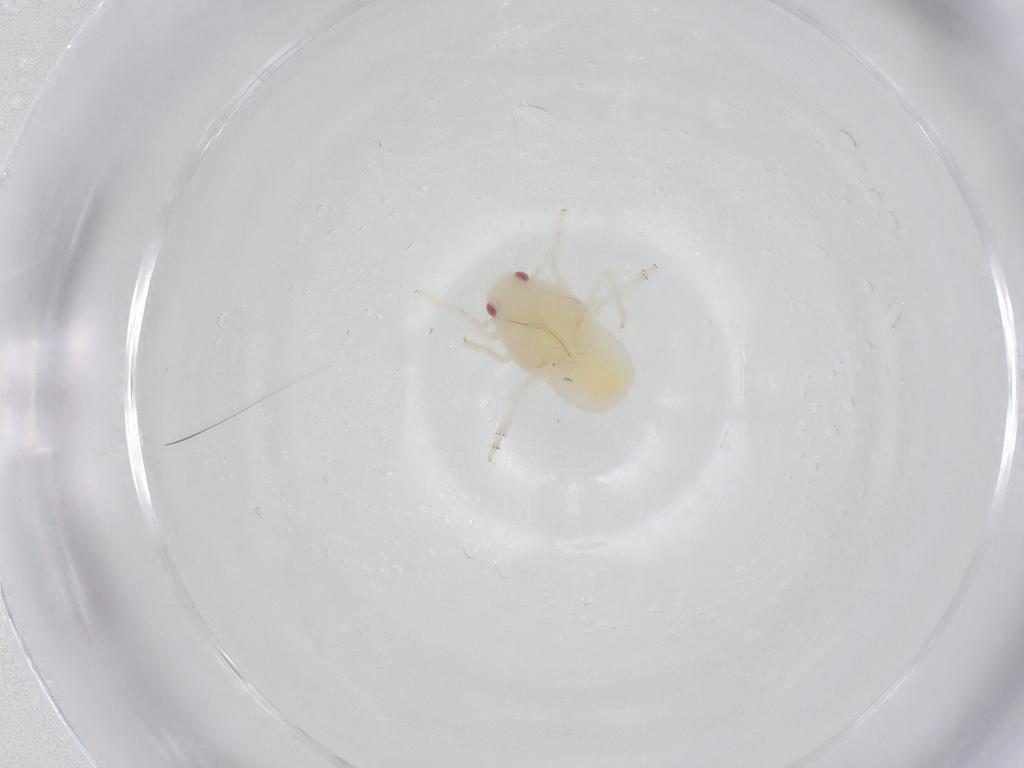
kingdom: Animalia
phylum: Arthropoda
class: Insecta
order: Hemiptera
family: Flatidae
